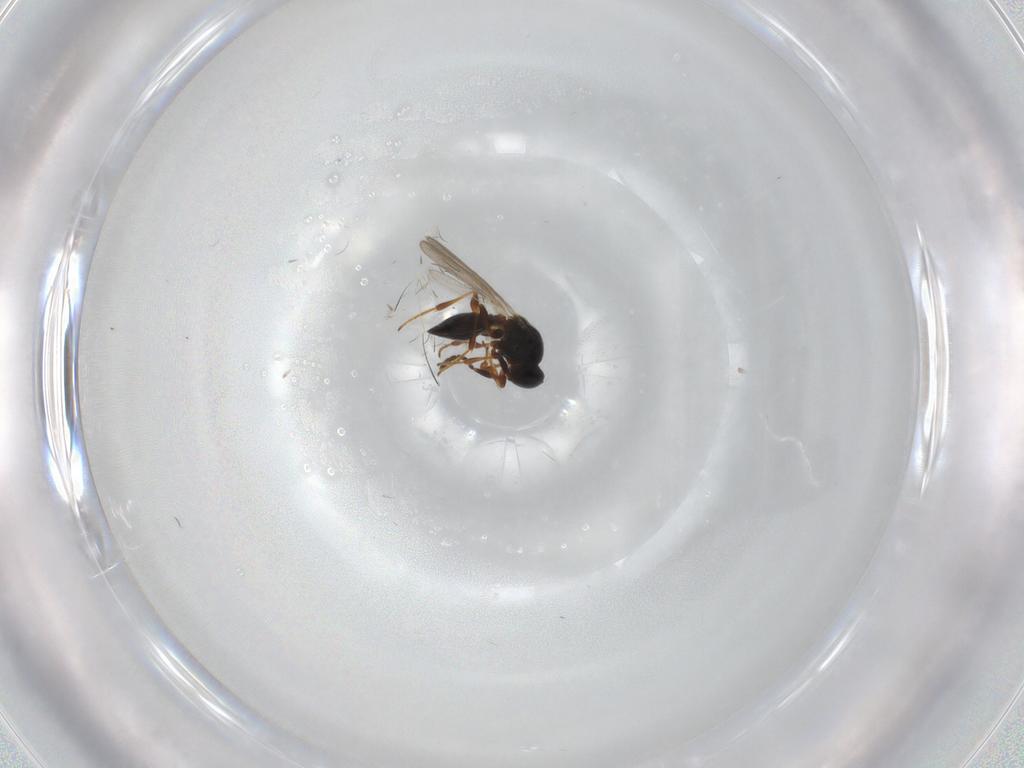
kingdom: Animalia
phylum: Arthropoda
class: Insecta
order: Hymenoptera
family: Platygastridae
